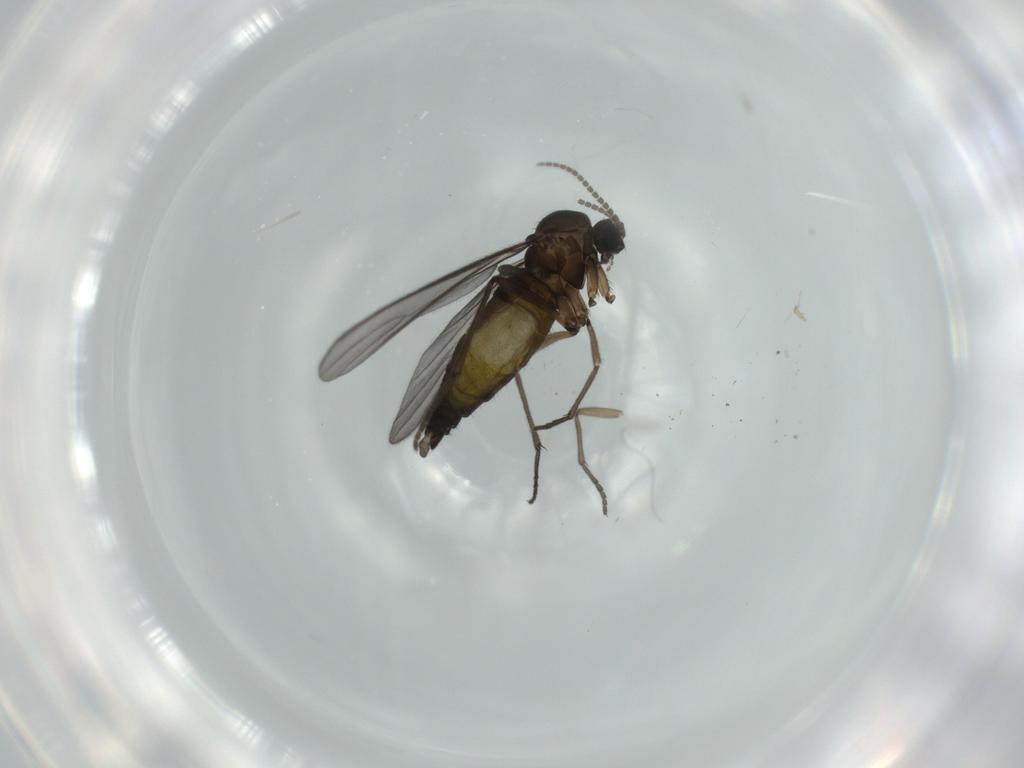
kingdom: Animalia
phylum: Arthropoda
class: Insecta
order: Diptera
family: Sciaridae
